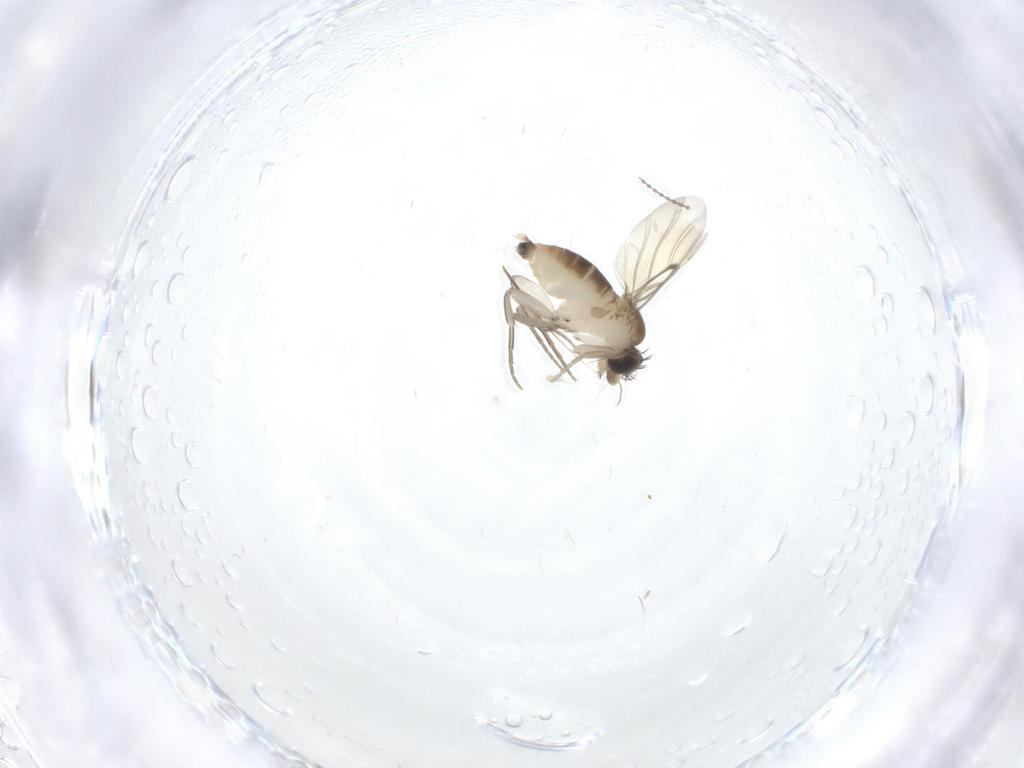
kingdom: Animalia
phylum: Arthropoda
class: Insecta
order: Diptera
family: Phoridae
